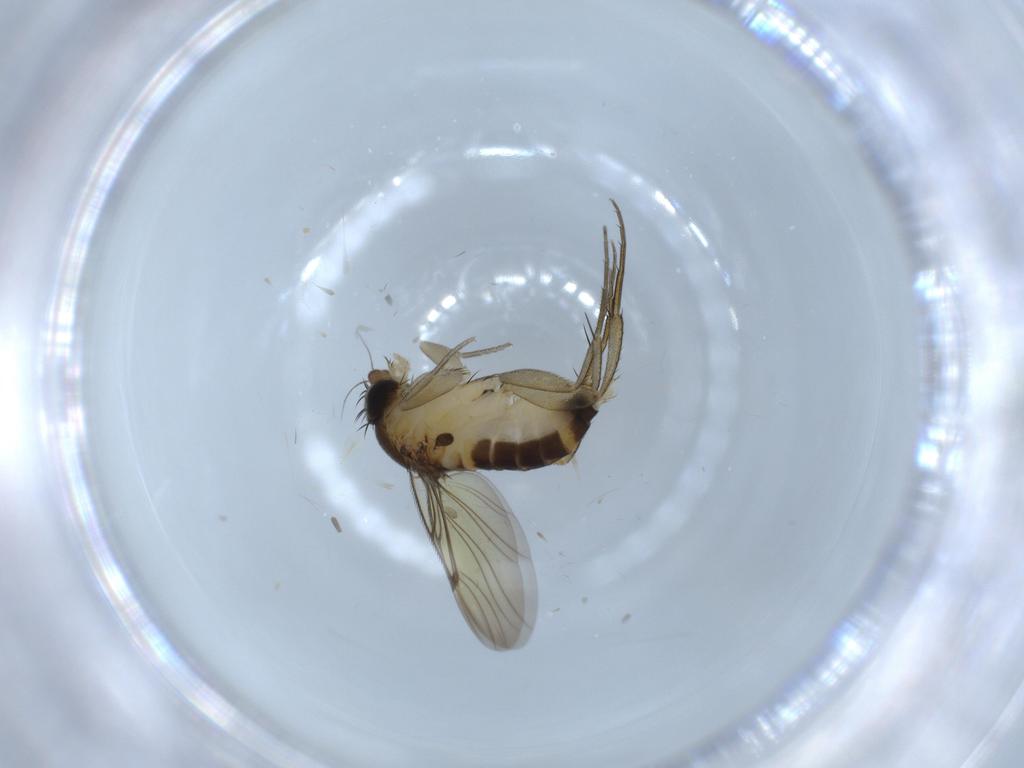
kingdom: Animalia
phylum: Arthropoda
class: Insecta
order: Diptera
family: Phoridae
